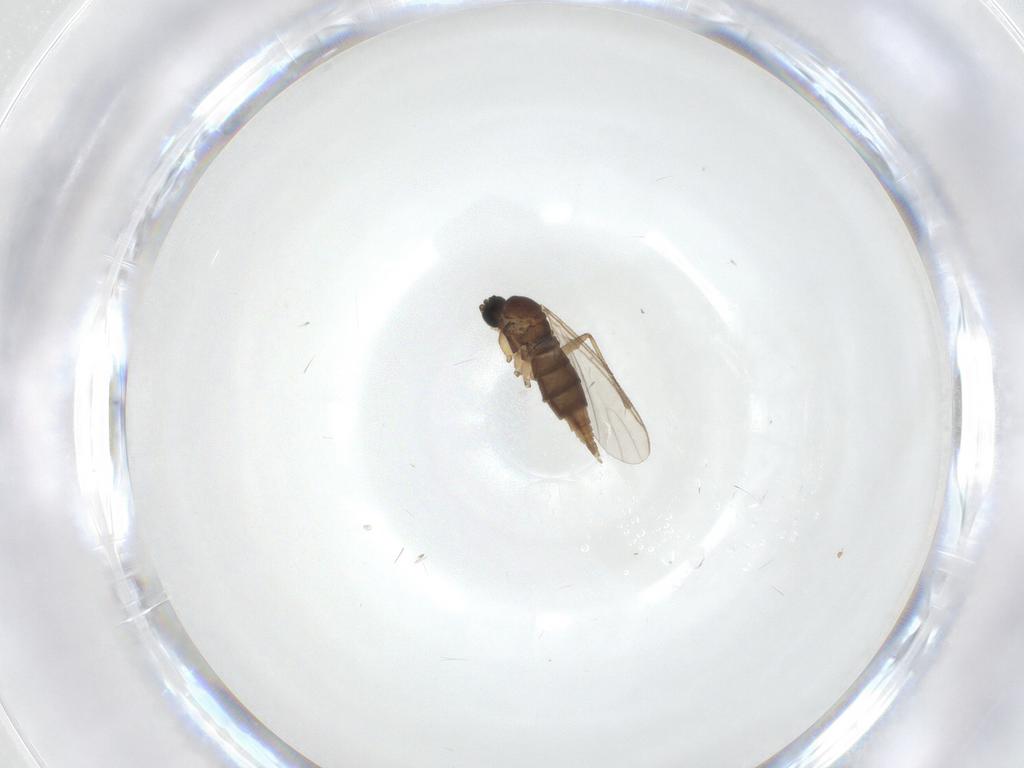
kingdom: Animalia
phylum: Arthropoda
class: Insecta
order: Diptera
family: Sciaridae
